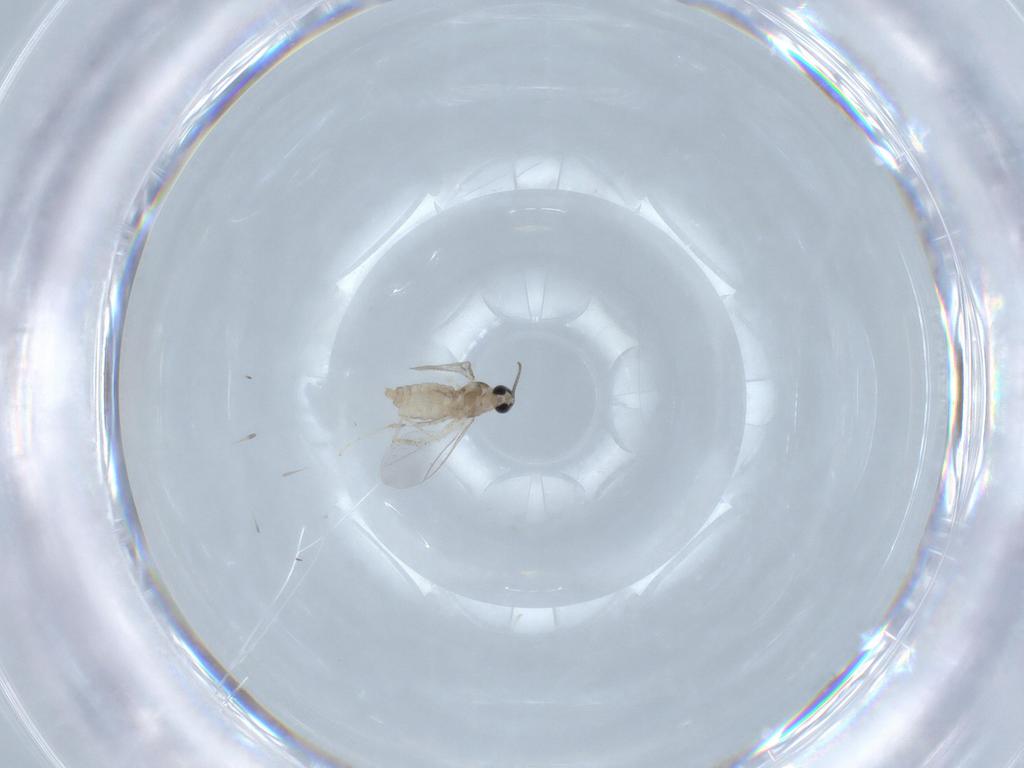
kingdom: Animalia
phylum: Arthropoda
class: Insecta
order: Diptera
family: Cecidomyiidae
